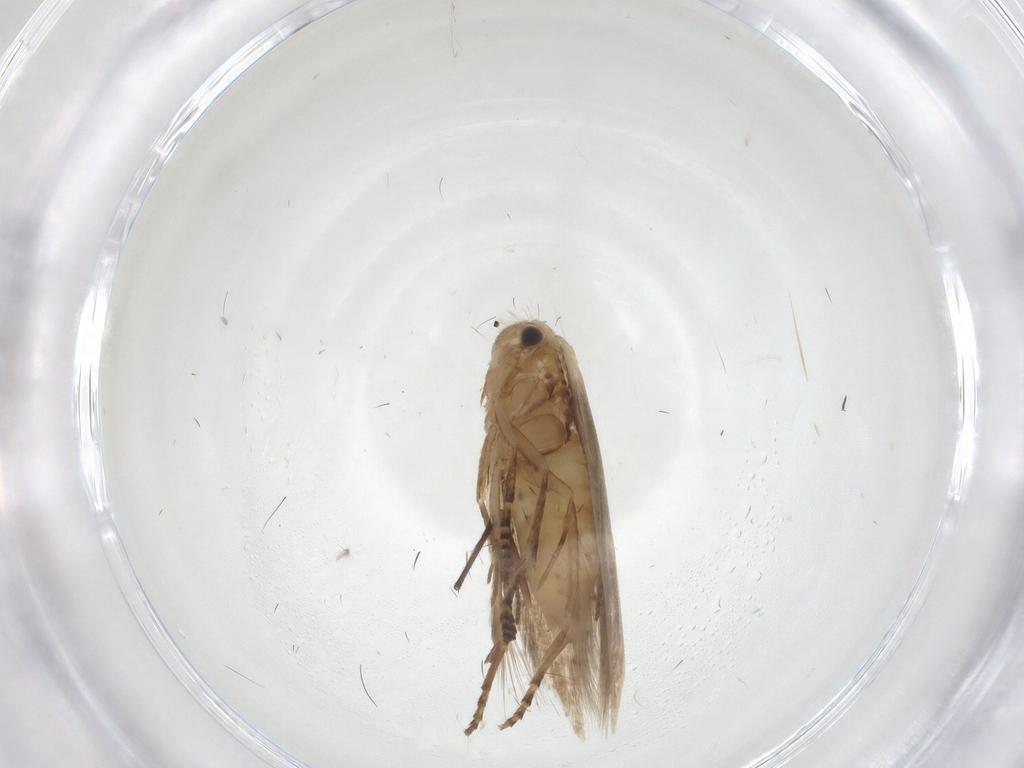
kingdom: Animalia
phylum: Arthropoda
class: Insecta
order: Lepidoptera
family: Bucculatricidae
